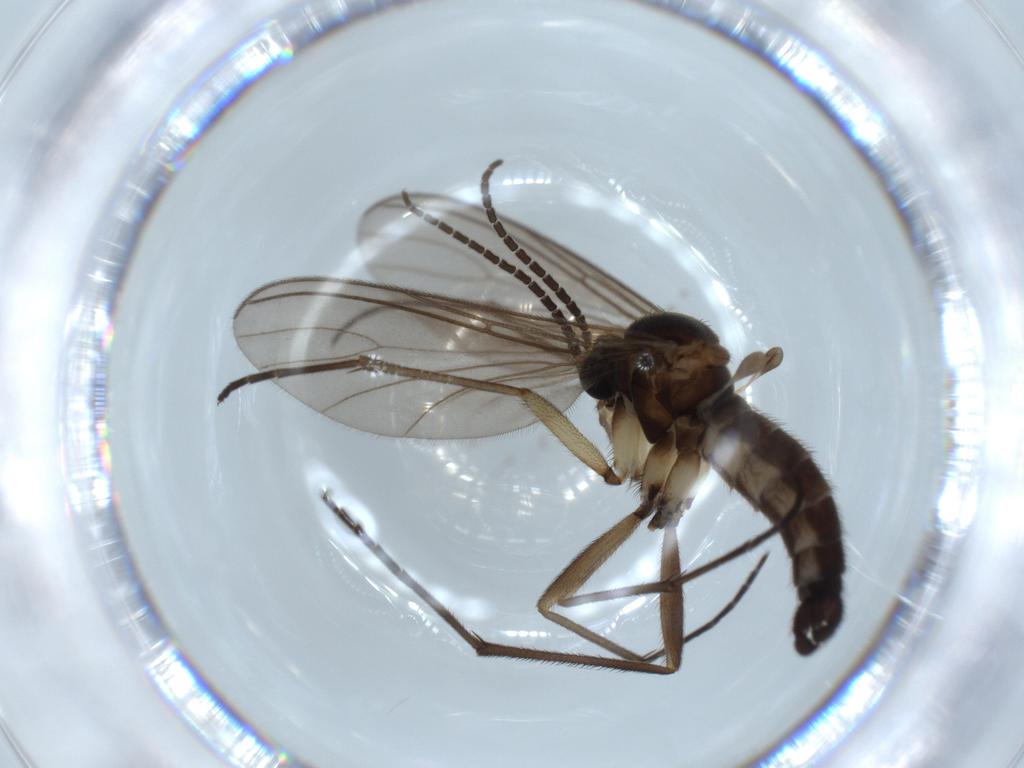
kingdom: Animalia
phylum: Arthropoda
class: Insecta
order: Diptera
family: Sciaridae
